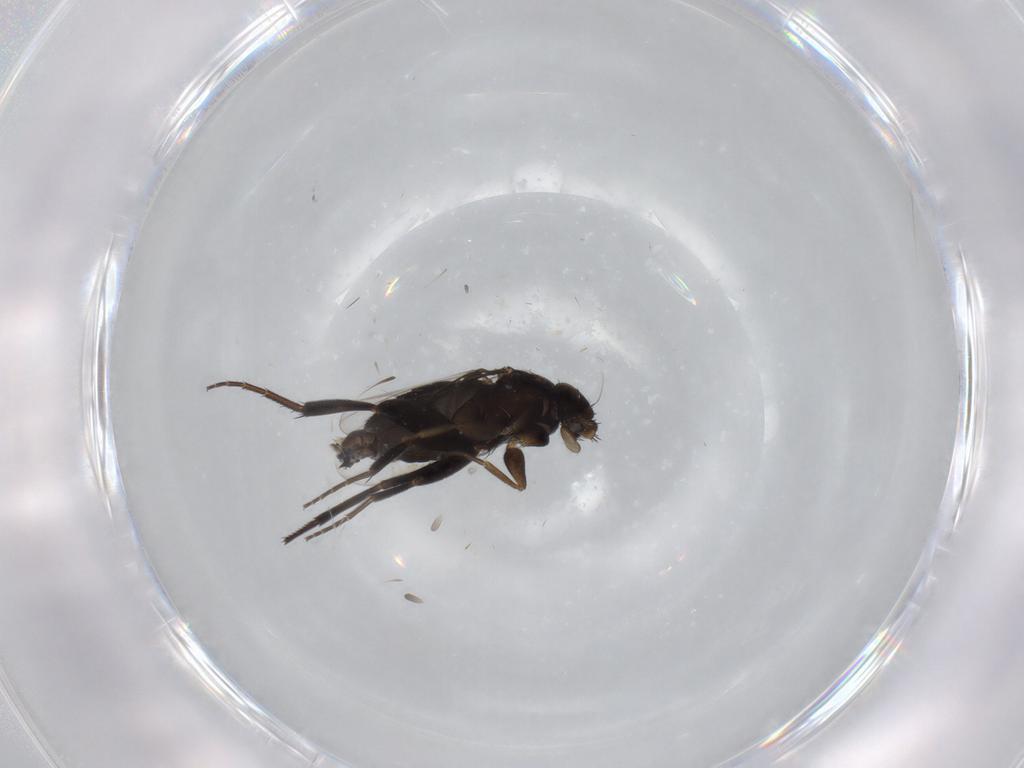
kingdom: Animalia
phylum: Arthropoda
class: Insecta
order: Diptera
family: Phoridae
